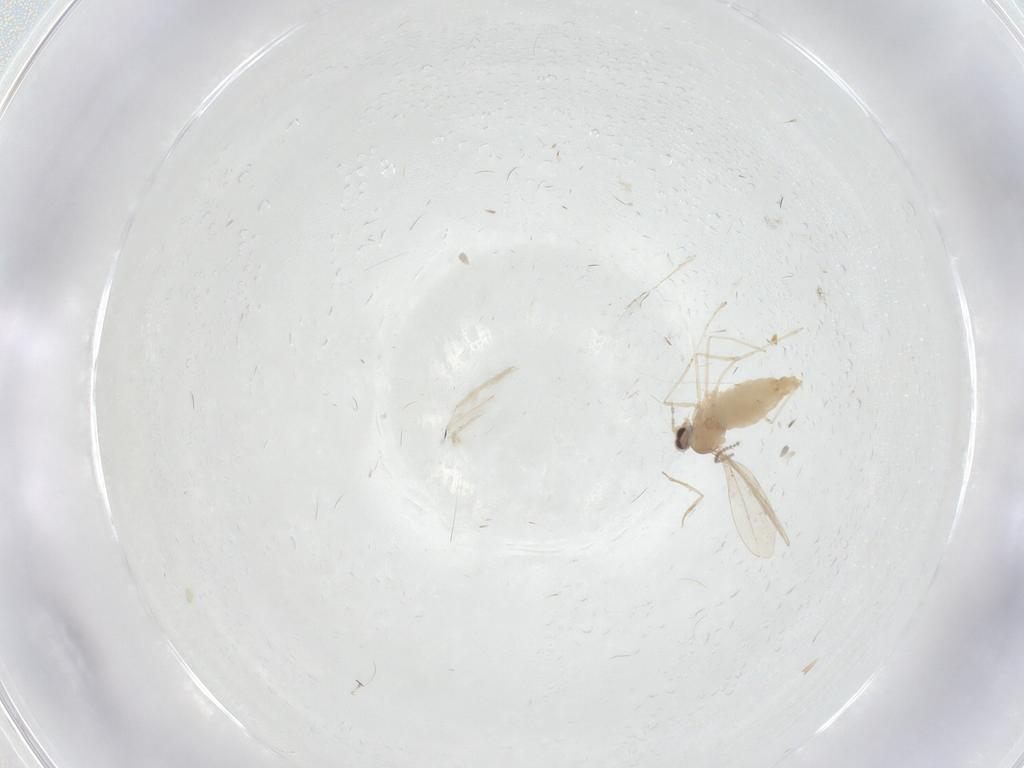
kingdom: Animalia
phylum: Arthropoda
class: Insecta
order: Diptera
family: Cecidomyiidae
